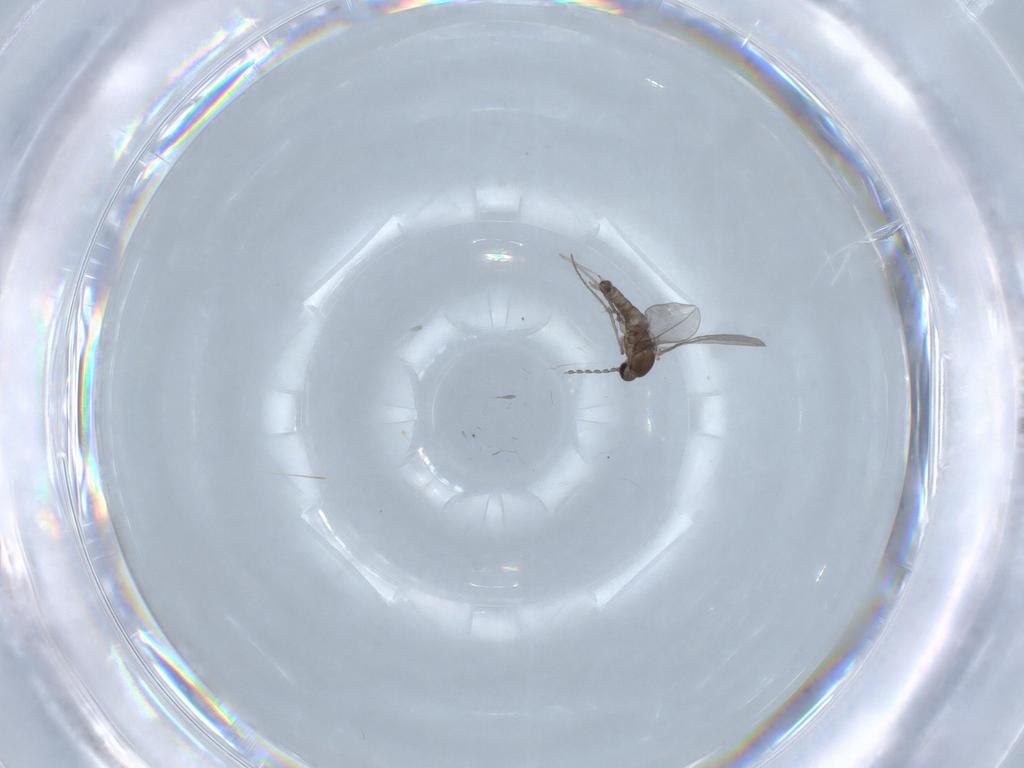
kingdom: Animalia
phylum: Arthropoda
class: Insecta
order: Diptera
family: Cecidomyiidae
